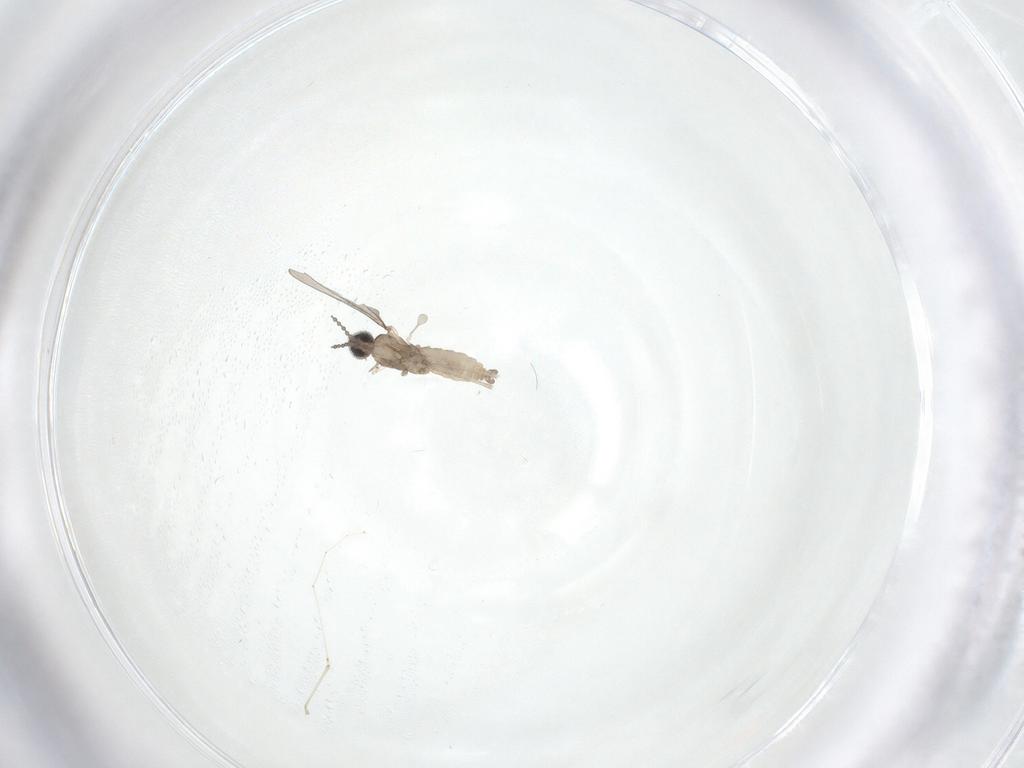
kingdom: Animalia
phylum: Arthropoda
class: Insecta
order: Diptera
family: Cecidomyiidae
